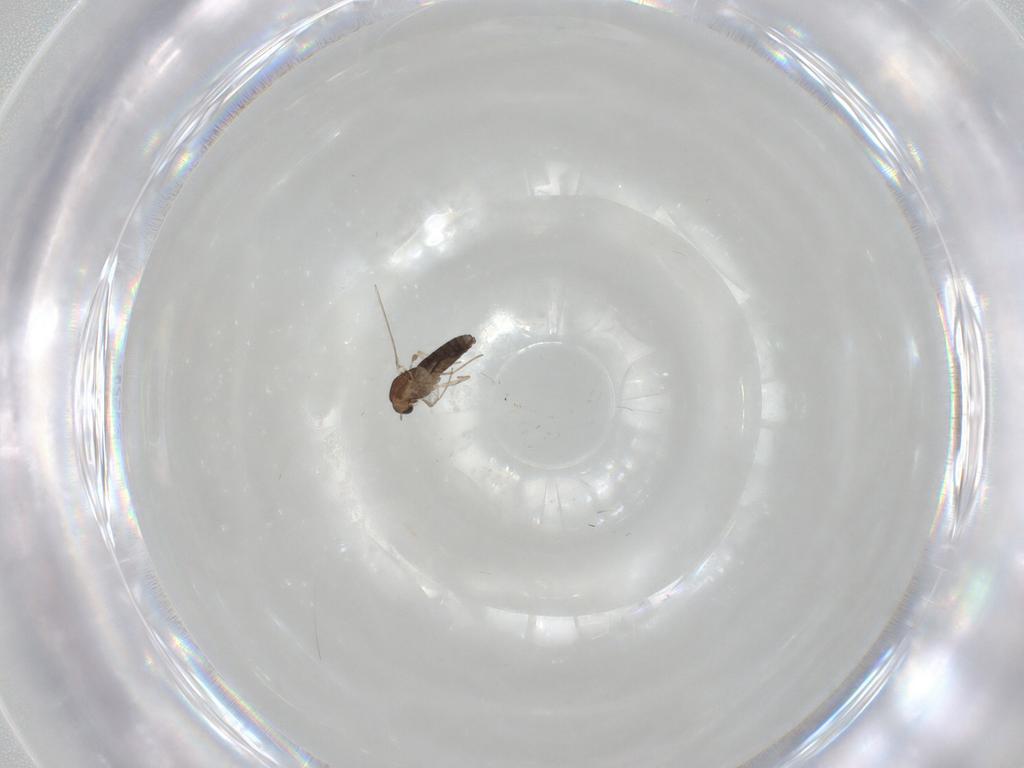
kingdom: Animalia
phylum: Arthropoda
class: Insecta
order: Diptera
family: Chironomidae
